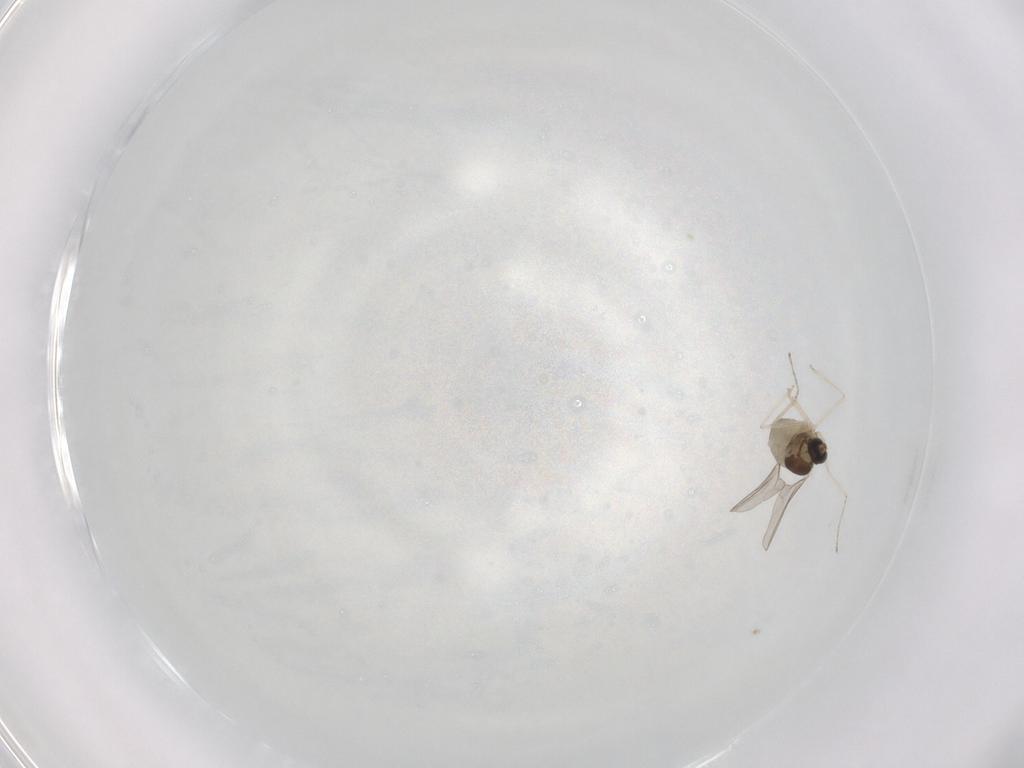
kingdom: Animalia
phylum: Arthropoda
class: Insecta
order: Diptera
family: Cecidomyiidae
